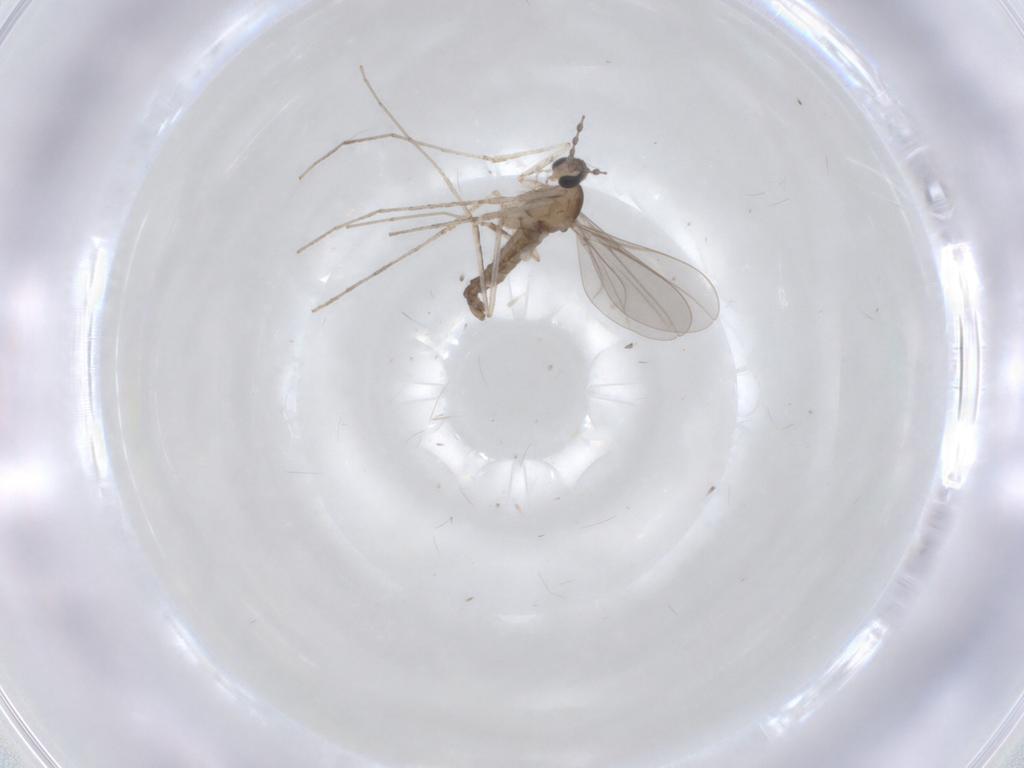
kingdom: Animalia
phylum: Arthropoda
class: Insecta
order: Diptera
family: Cecidomyiidae
